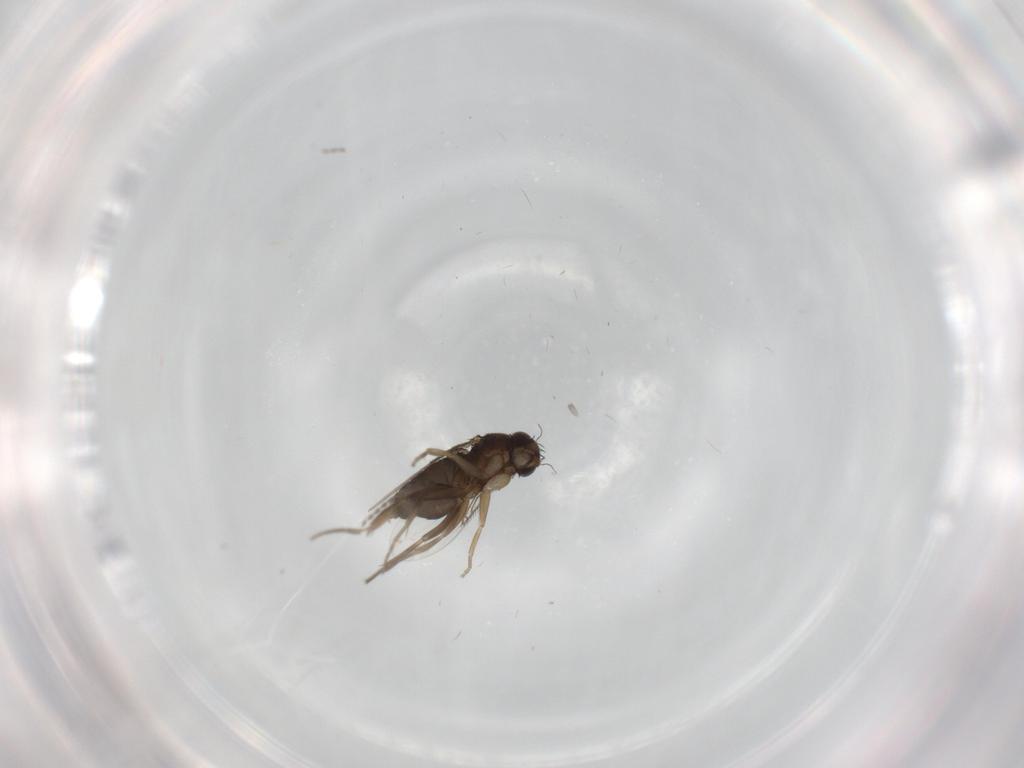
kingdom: Animalia
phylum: Arthropoda
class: Insecta
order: Diptera
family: Phoridae
